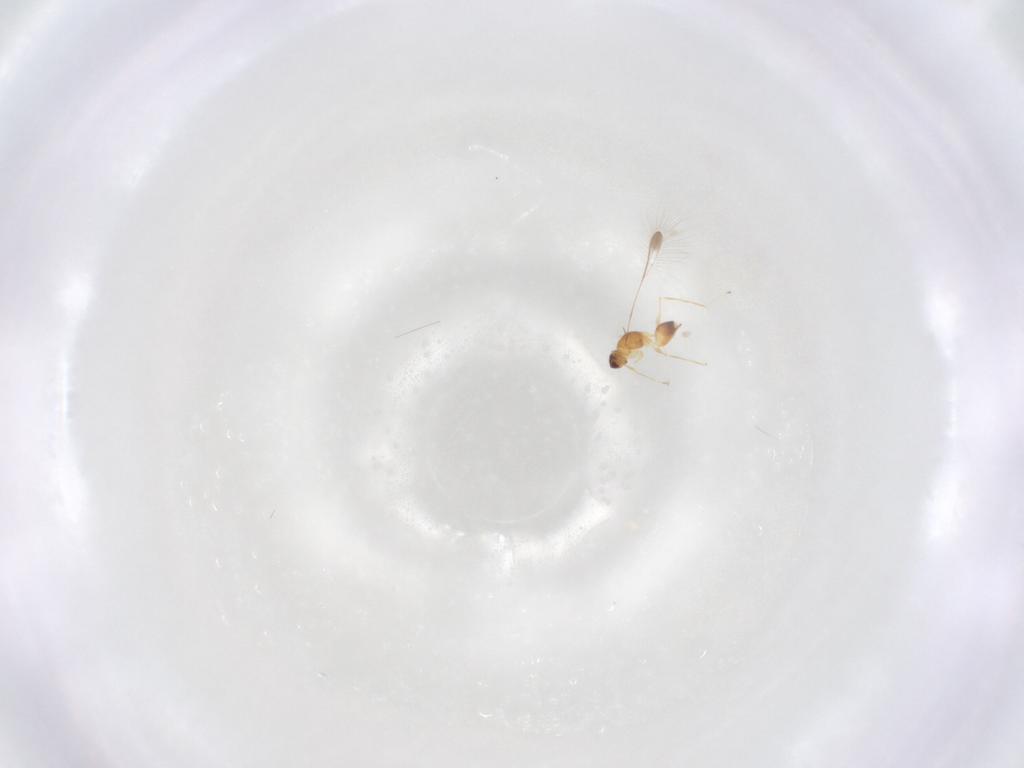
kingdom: Animalia
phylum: Arthropoda
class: Insecta
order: Hymenoptera
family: Mymaridae
